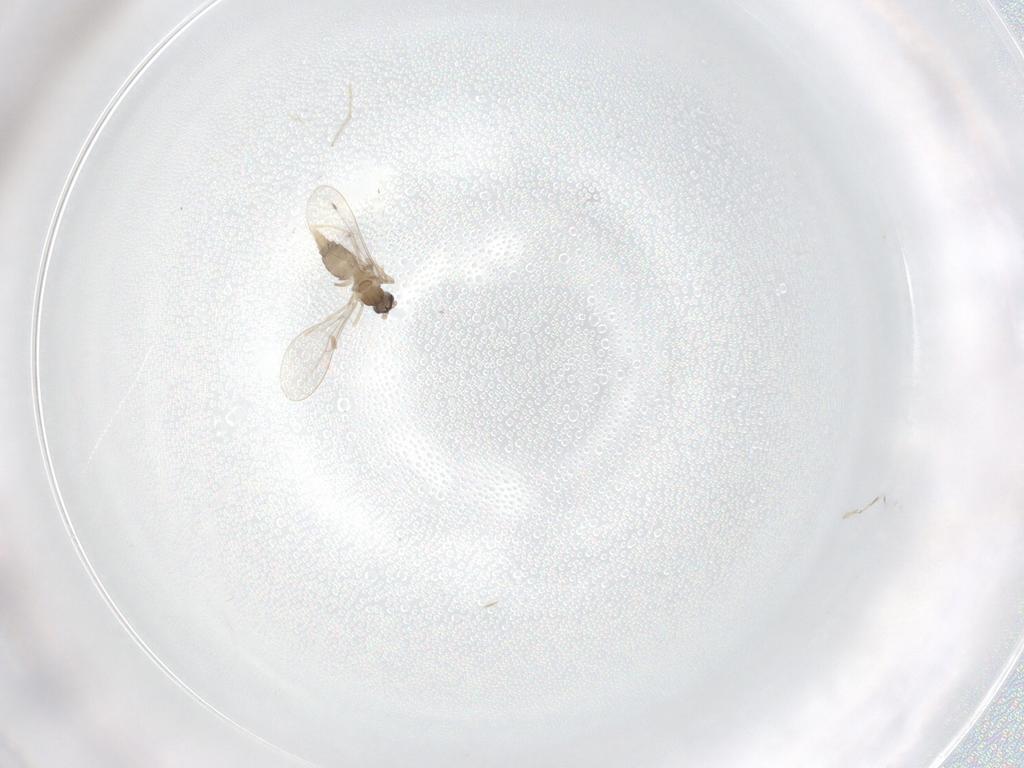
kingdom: Animalia
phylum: Arthropoda
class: Insecta
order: Diptera
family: Cecidomyiidae
